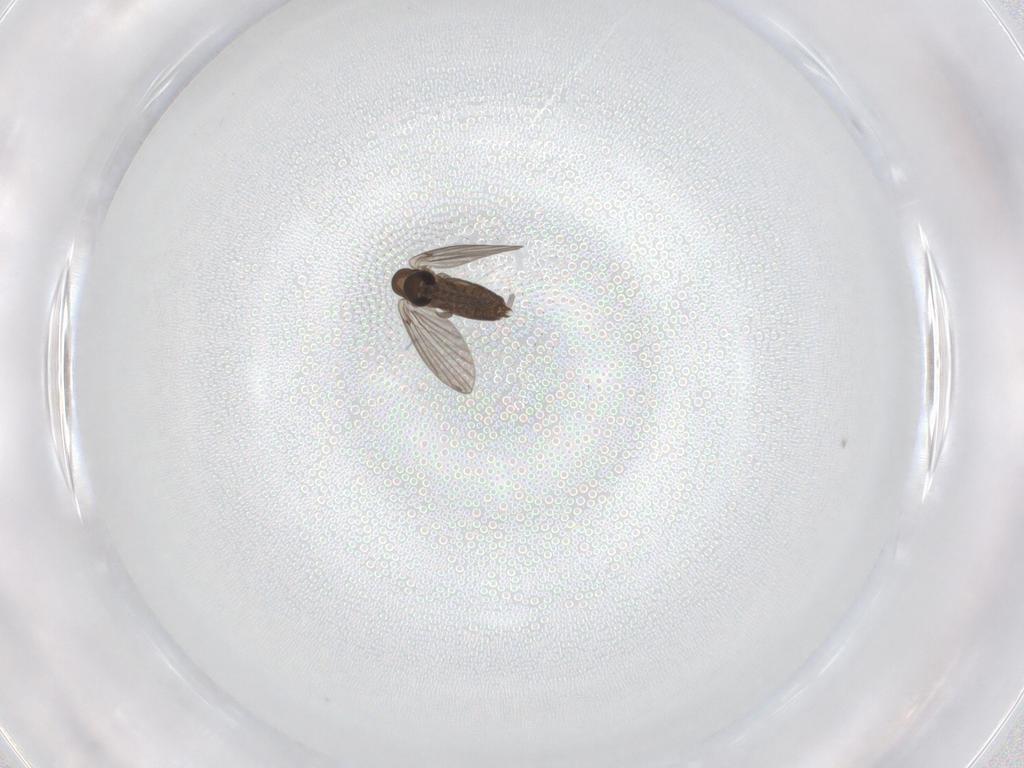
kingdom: Animalia
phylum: Arthropoda
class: Insecta
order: Diptera
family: Ceratopogonidae
